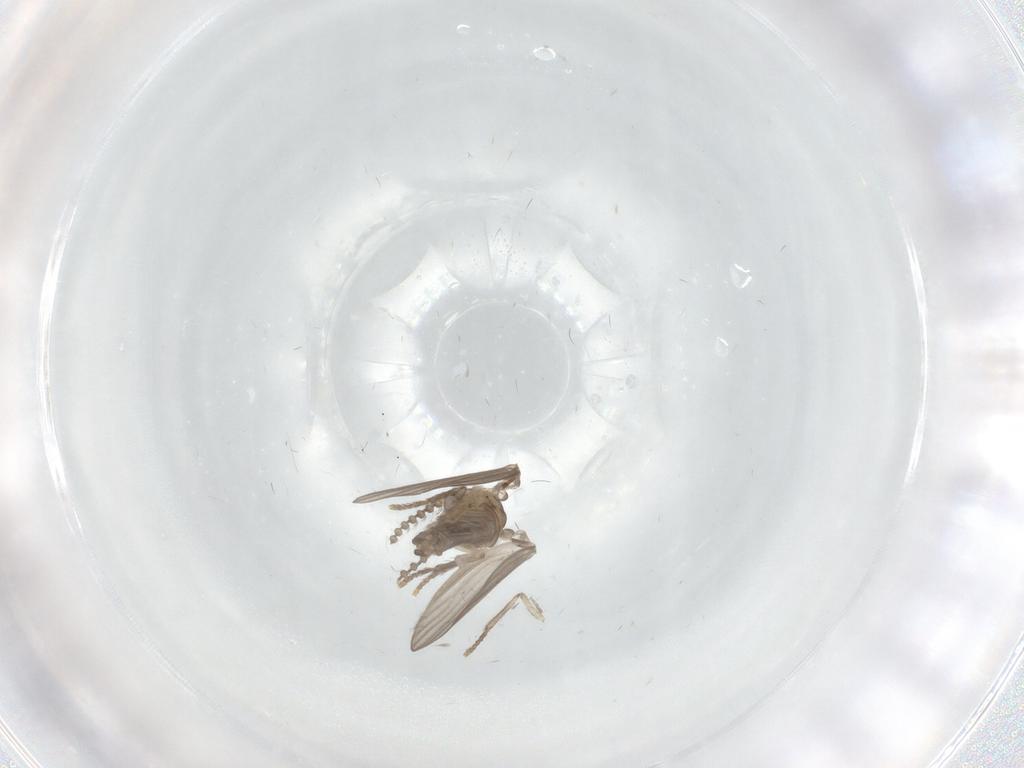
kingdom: Animalia
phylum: Arthropoda
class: Insecta
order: Diptera
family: Psychodidae
